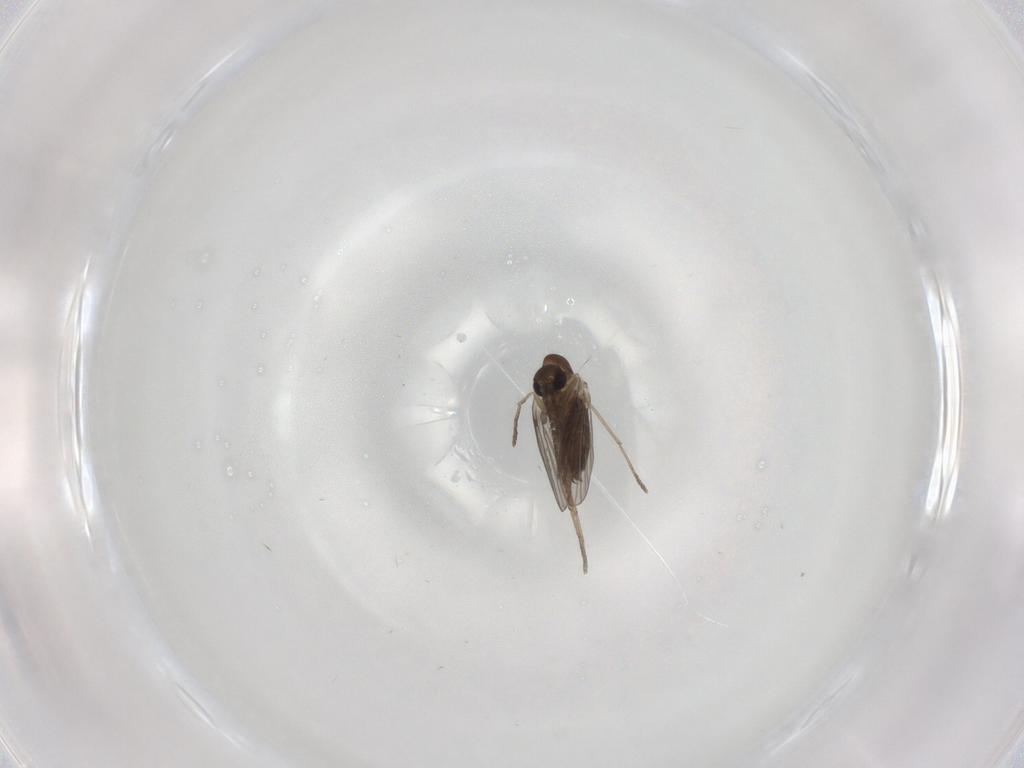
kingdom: Animalia
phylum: Arthropoda
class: Insecta
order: Diptera
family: Psychodidae
